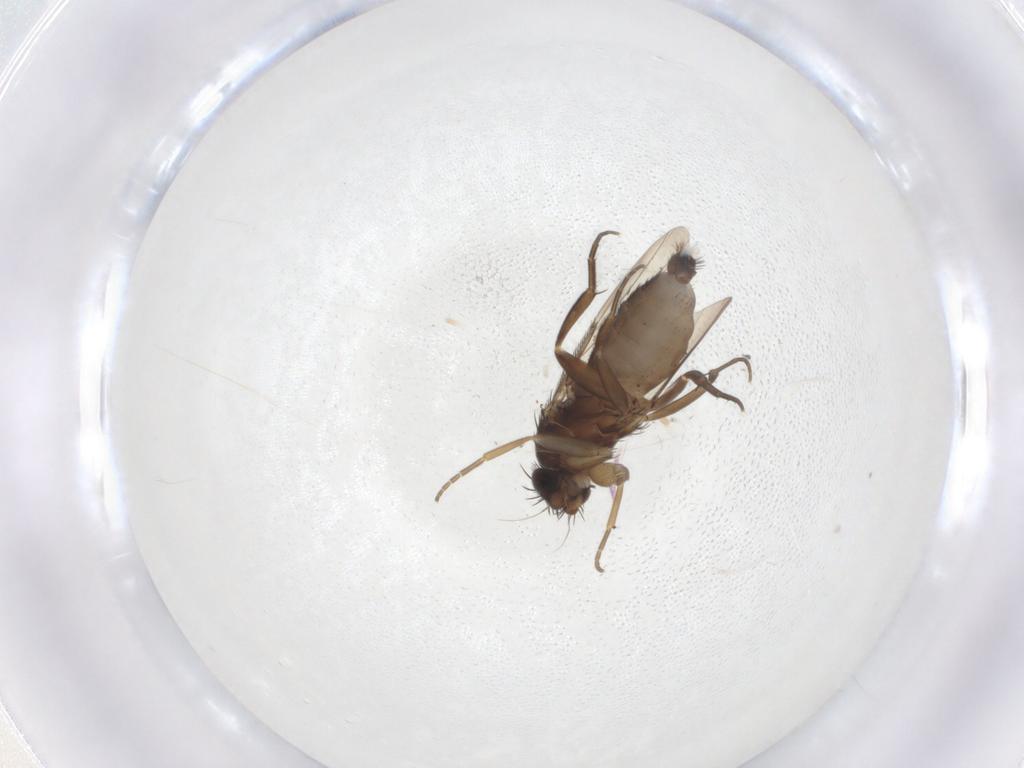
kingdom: Animalia
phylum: Arthropoda
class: Insecta
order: Diptera
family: Phoridae
